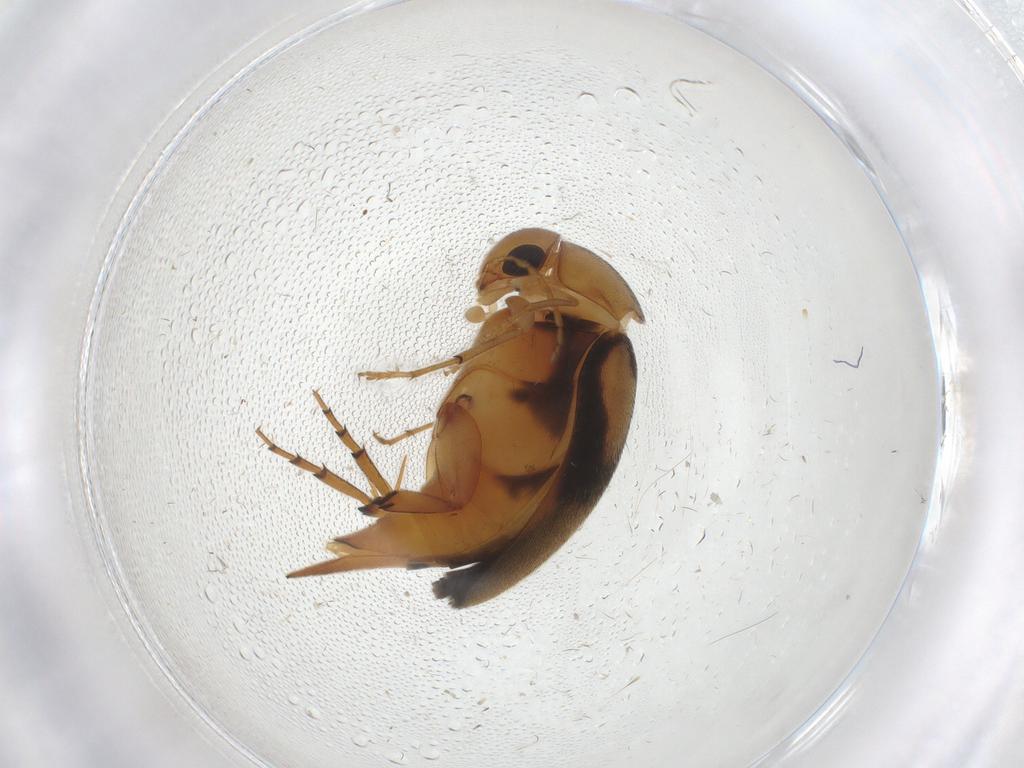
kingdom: Animalia
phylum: Arthropoda
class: Insecta
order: Coleoptera
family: Mordellidae
